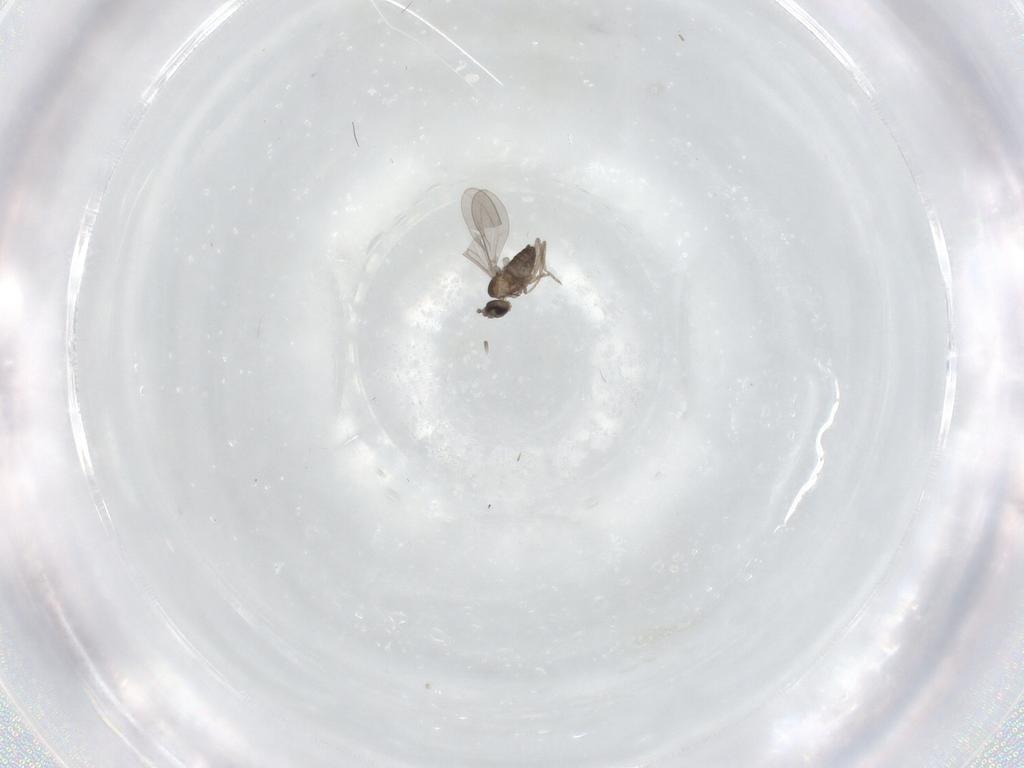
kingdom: Animalia
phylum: Arthropoda
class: Insecta
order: Diptera
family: Cecidomyiidae
